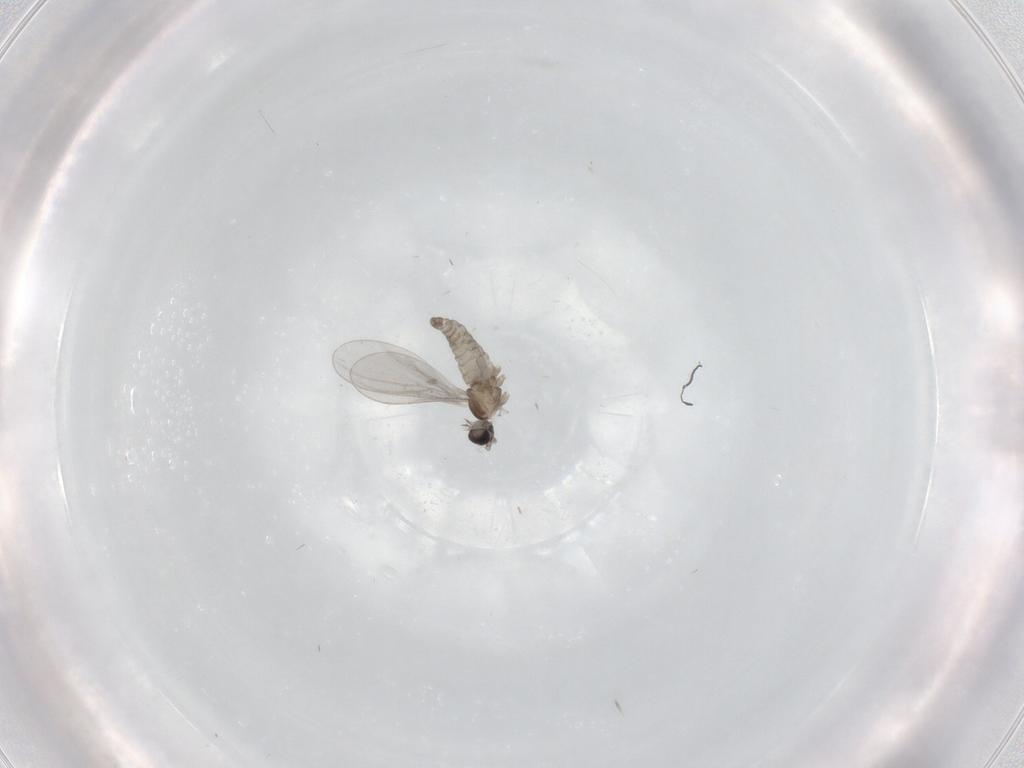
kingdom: Animalia
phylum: Arthropoda
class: Insecta
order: Diptera
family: Cecidomyiidae
